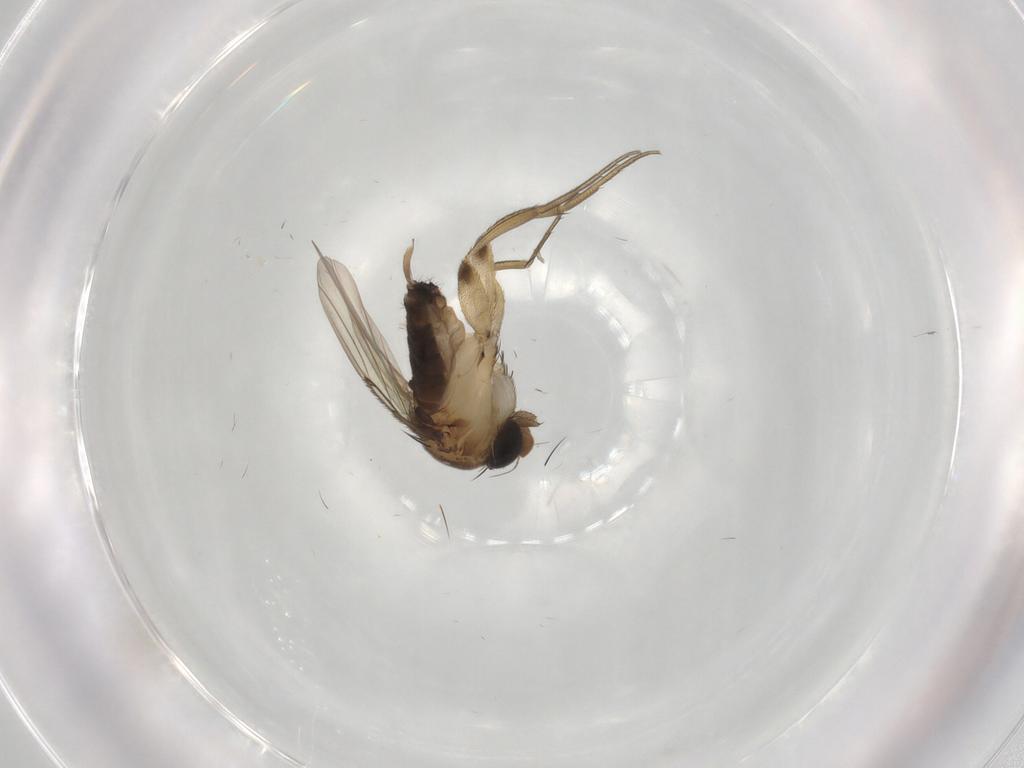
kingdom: Animalia
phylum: Arthropoda
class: Insecta
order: Diptera
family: Phoridae
